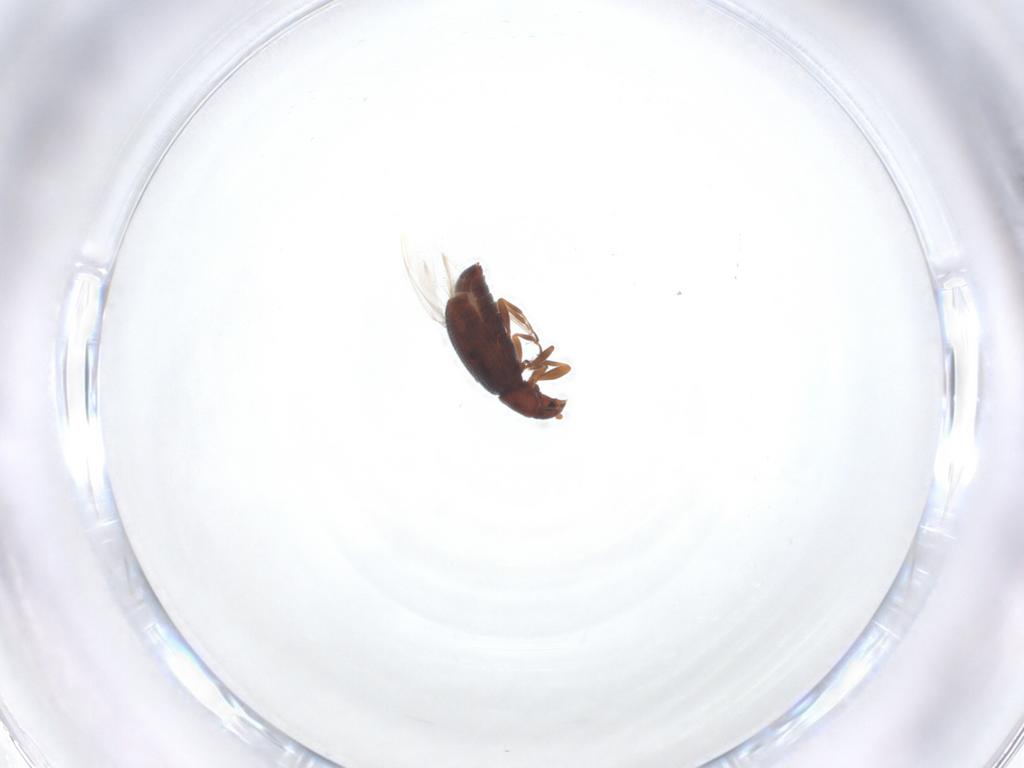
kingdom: Animalia
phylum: Arthropoda
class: Insecta
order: Coleoptera
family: Latridiidae
